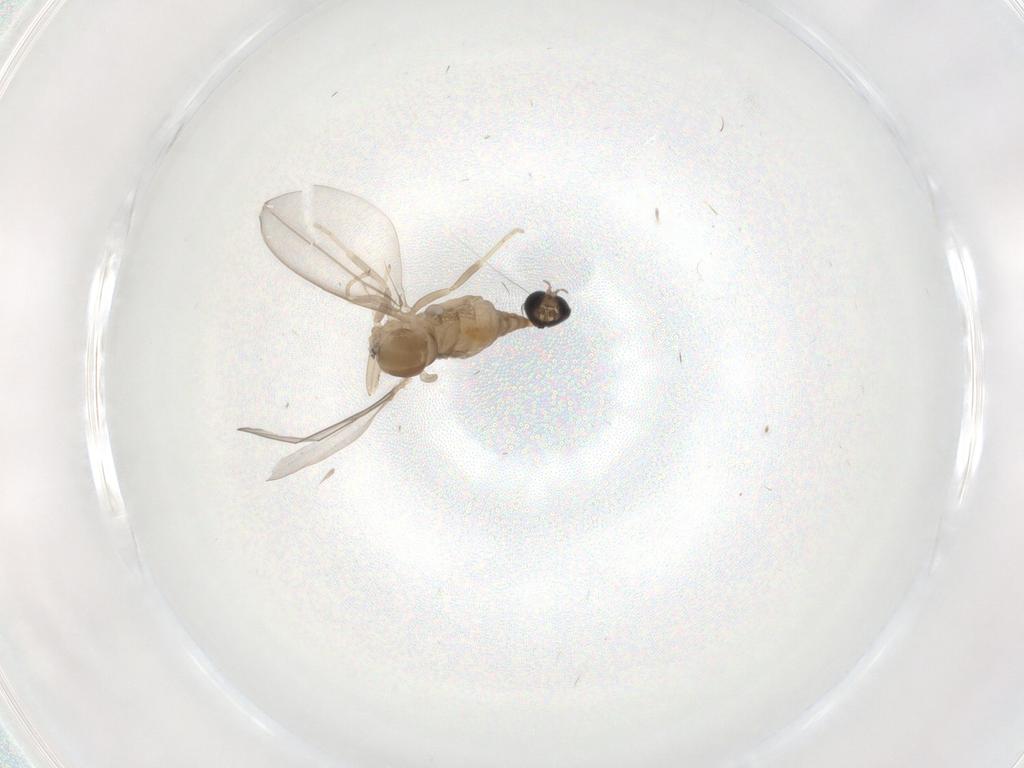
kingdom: Animalia
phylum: Arthropoda
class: Insecta
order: Diptera
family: Cecidomyiidae
